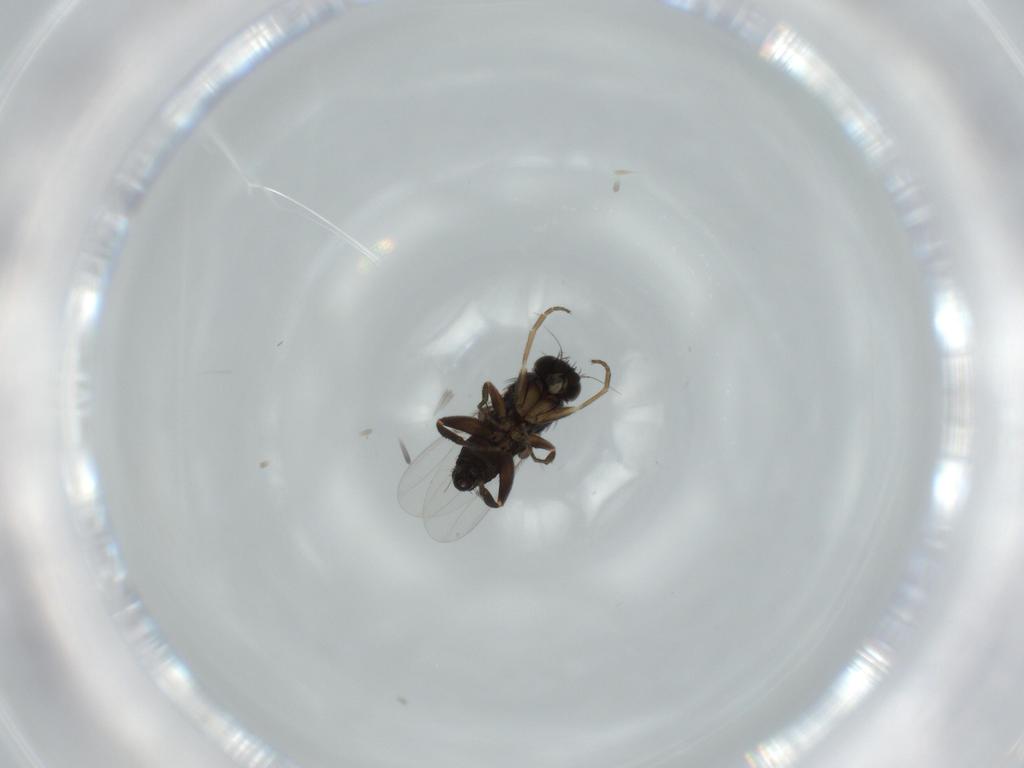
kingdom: Animalia
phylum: Arthropoda
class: Insecta
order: Diptera
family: Phoridae
